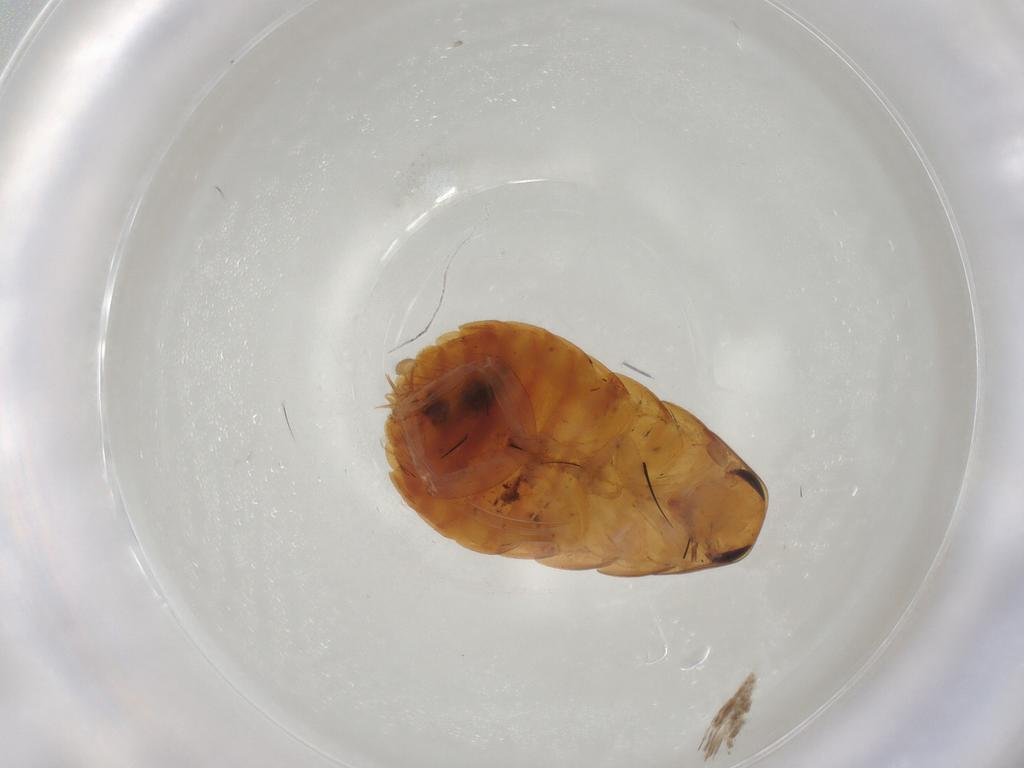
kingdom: Animalia
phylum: Arthropoda
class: Insecta
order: Blattodea
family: Blaberidae
